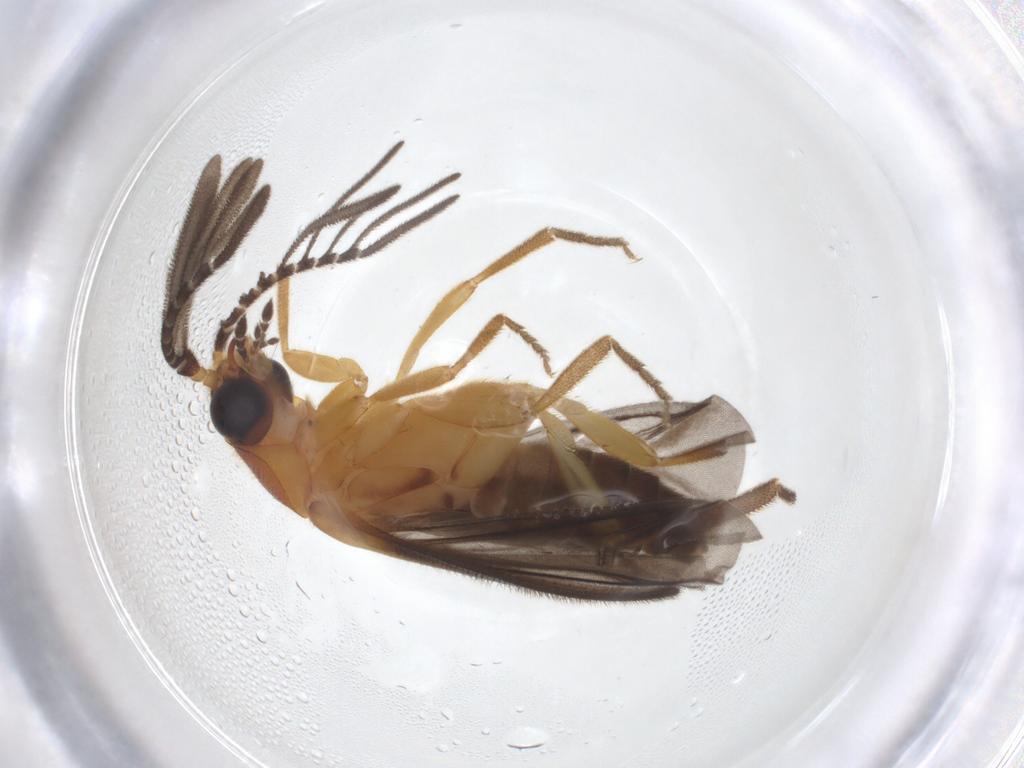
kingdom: Animalia
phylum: Arthropoda
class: Insecta
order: Coleoptera
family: Lampyridae
